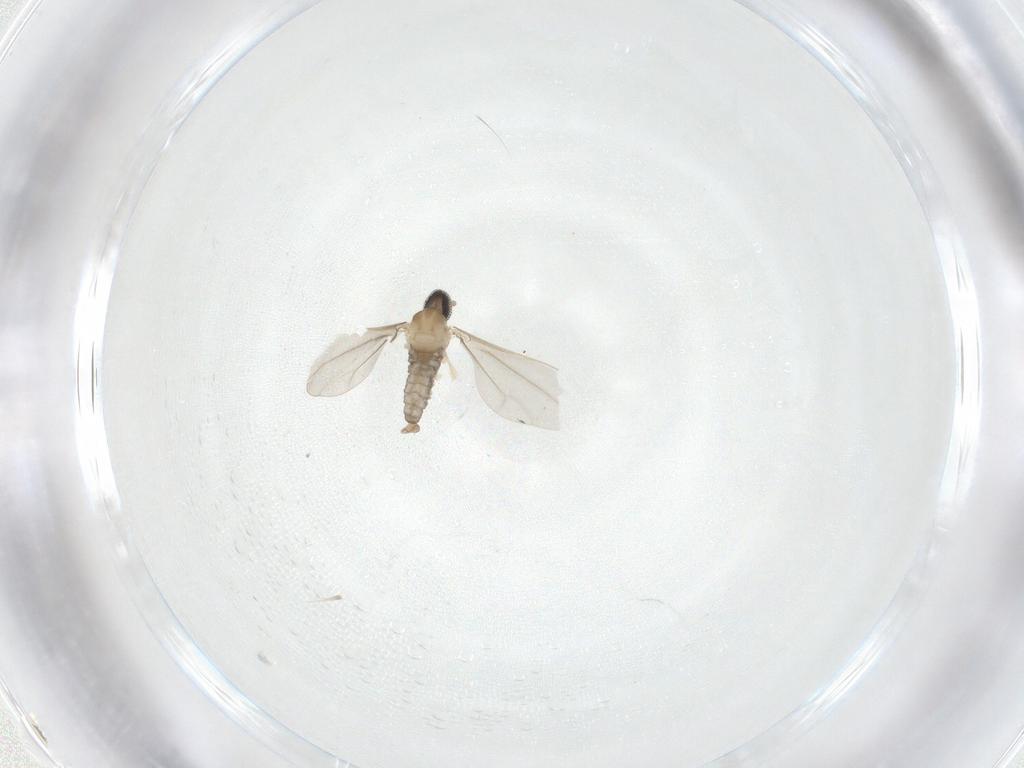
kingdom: Animalia
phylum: Arthropoda
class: Insecta
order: Diptera
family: Cecidomyiidae
